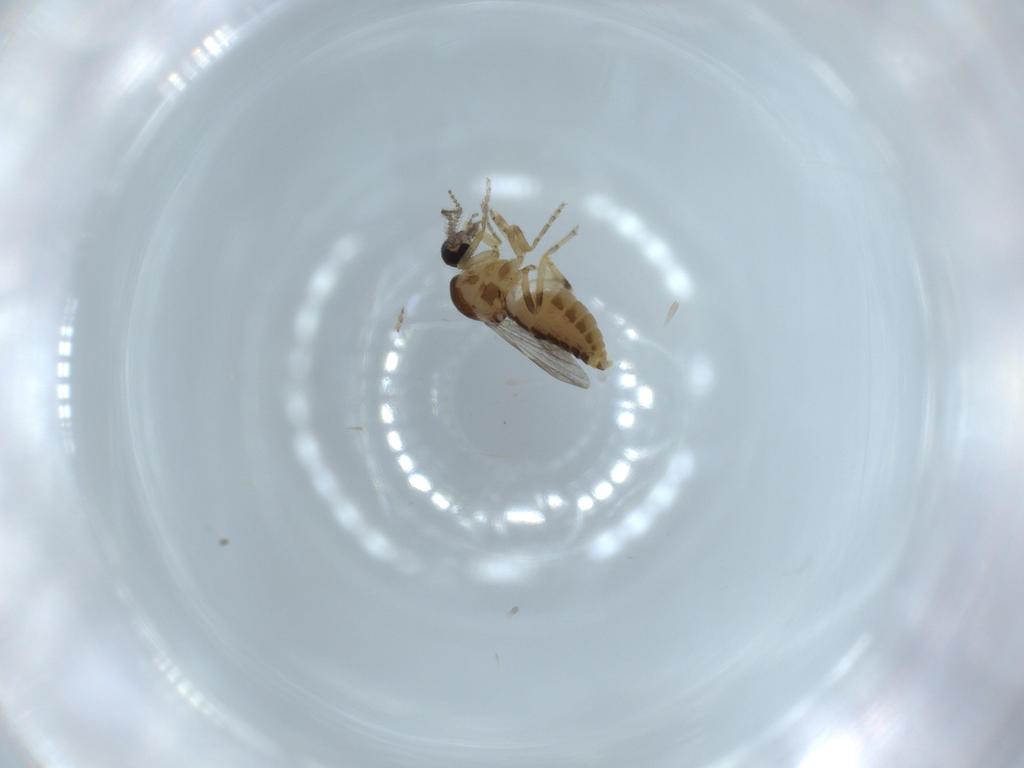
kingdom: Animalia
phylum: Arthropoda
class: Insecta
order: Diptera
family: Ceratopogonidae
